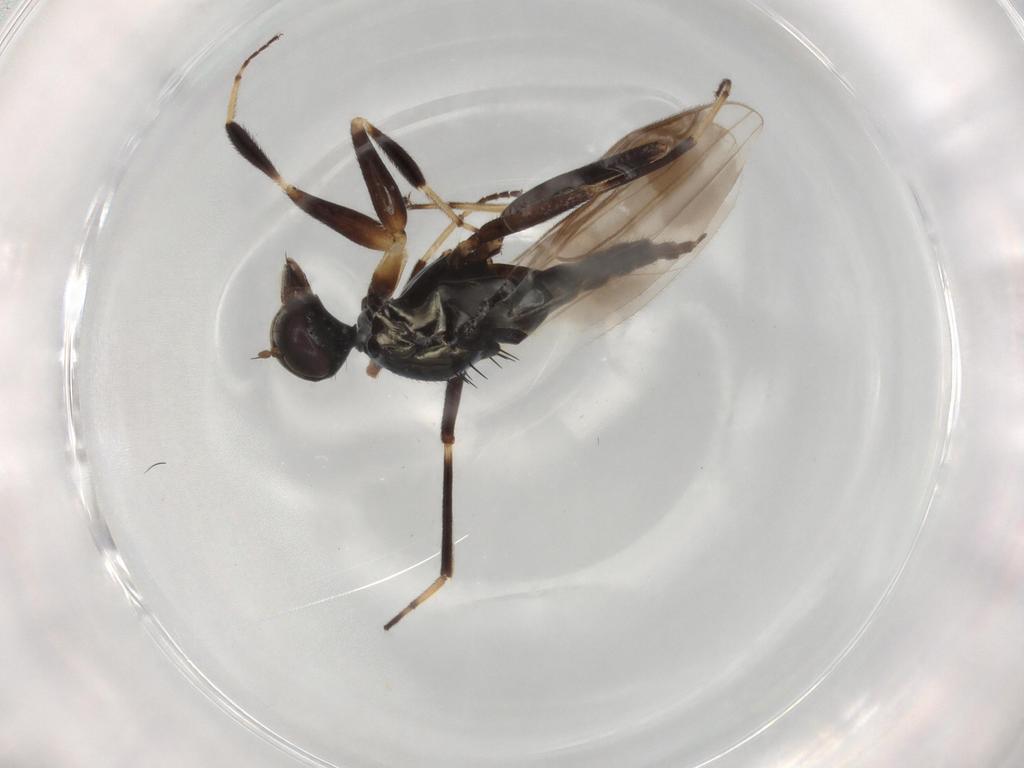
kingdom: Animalia
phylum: Arthropoda
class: Insecta
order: Diptera
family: Hybotidae
